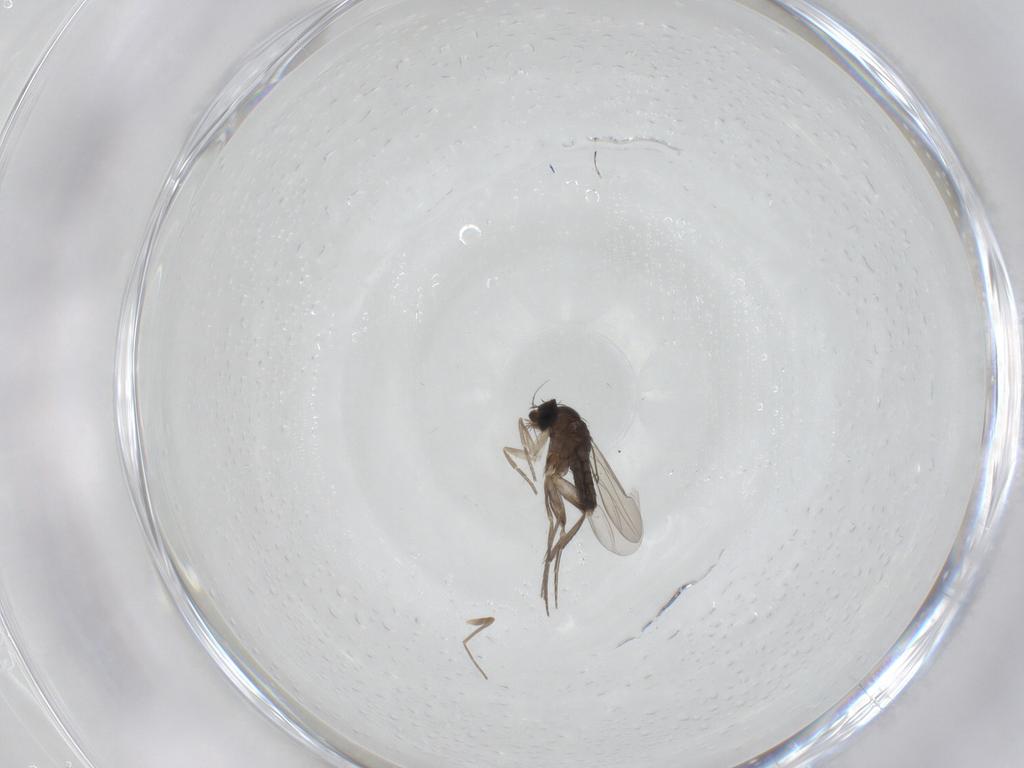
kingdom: Animalia
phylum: Arthropoda
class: Insecta
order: Diptera
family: Phoridae
